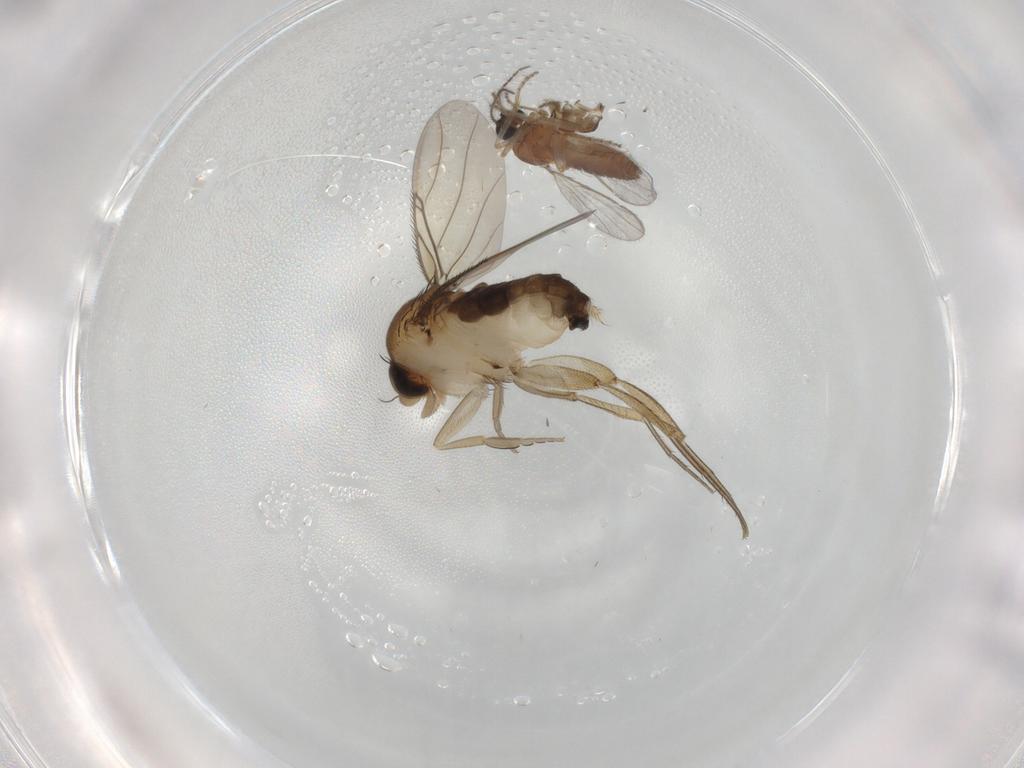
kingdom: Animalia
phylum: Arthropoda
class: Insecta
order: Diptera
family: Phoridae
